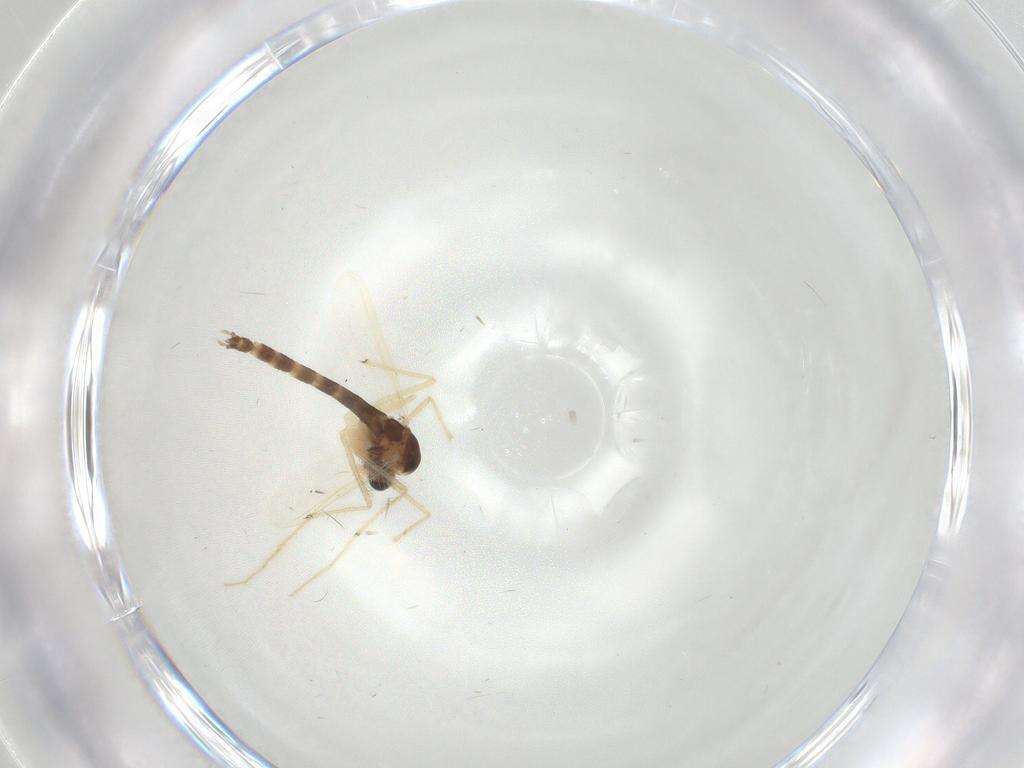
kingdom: Animalia
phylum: Arthropoda
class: Insecta
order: Diptera
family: Chironomidae
